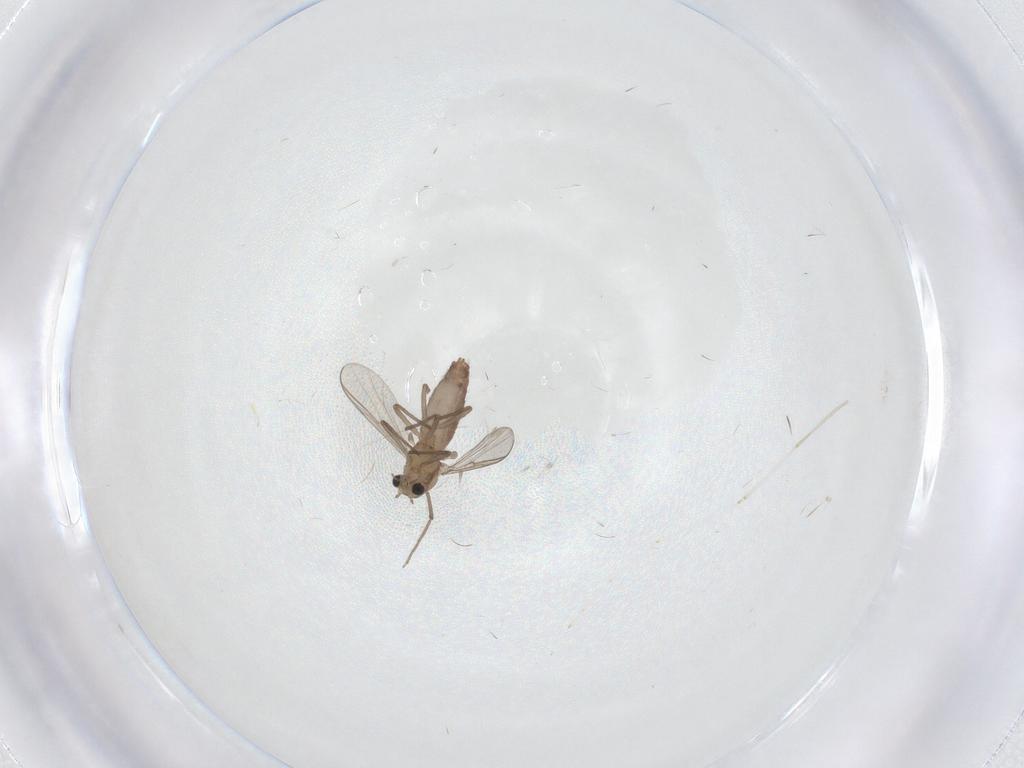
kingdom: Animalia
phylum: Arthropoda
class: Insecta
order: Diptera
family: Chironomidae
